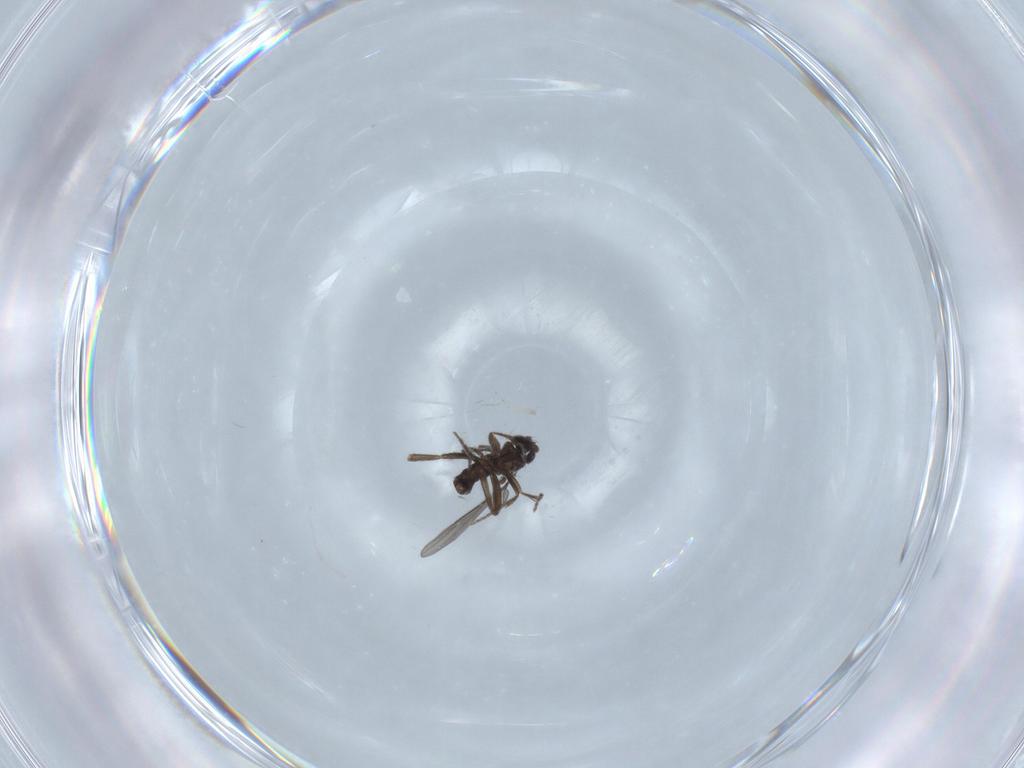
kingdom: Animalia
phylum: Arthropoda
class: Insecta
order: Diptera
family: Phoridae
